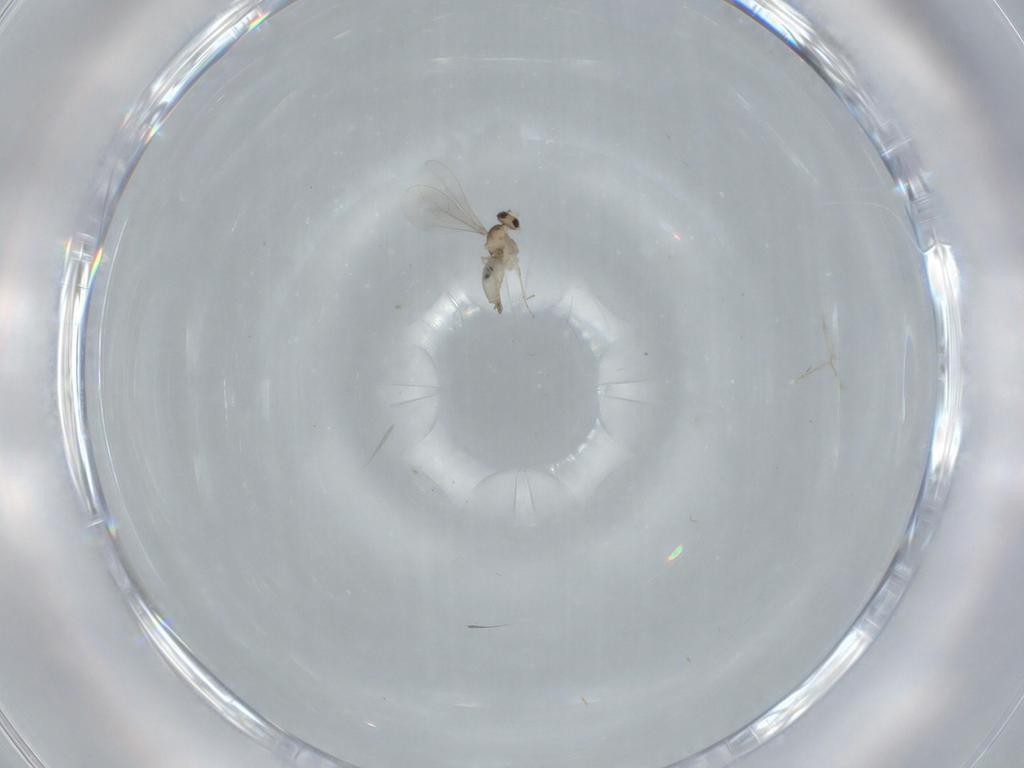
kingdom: Animalia
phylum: Arthropoda
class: Insecta
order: Diptera
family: Cecidomyiidae
